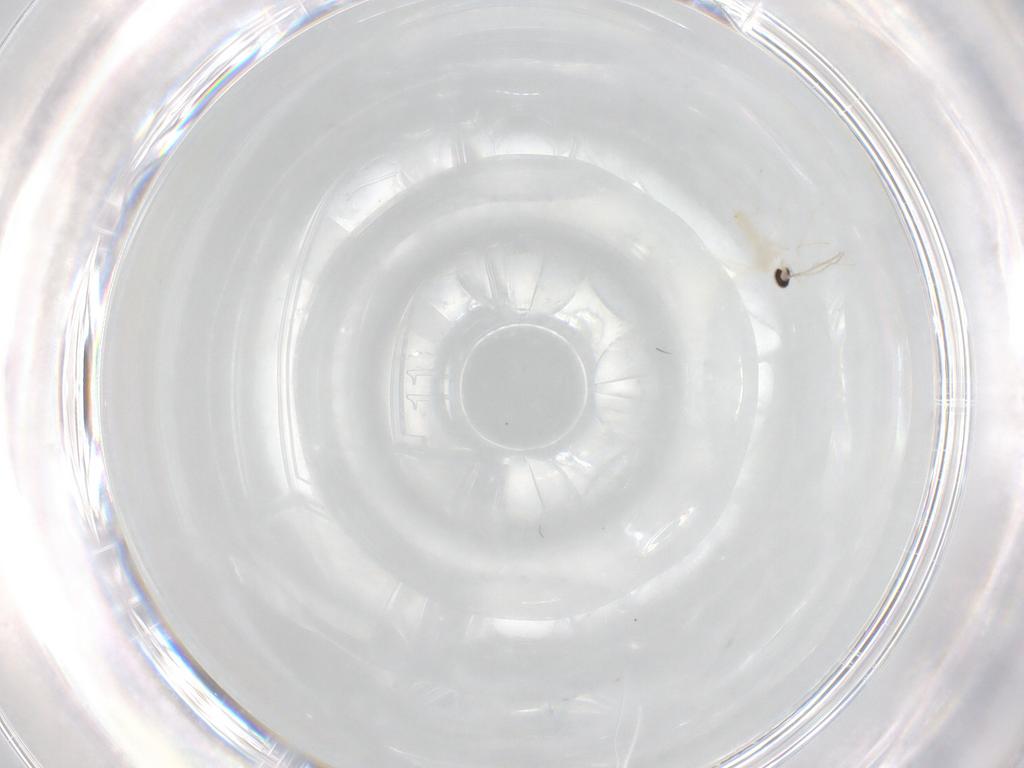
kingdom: Animalia
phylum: Arthropoda
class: Insecta
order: Diptera
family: Cecidomyiidae
